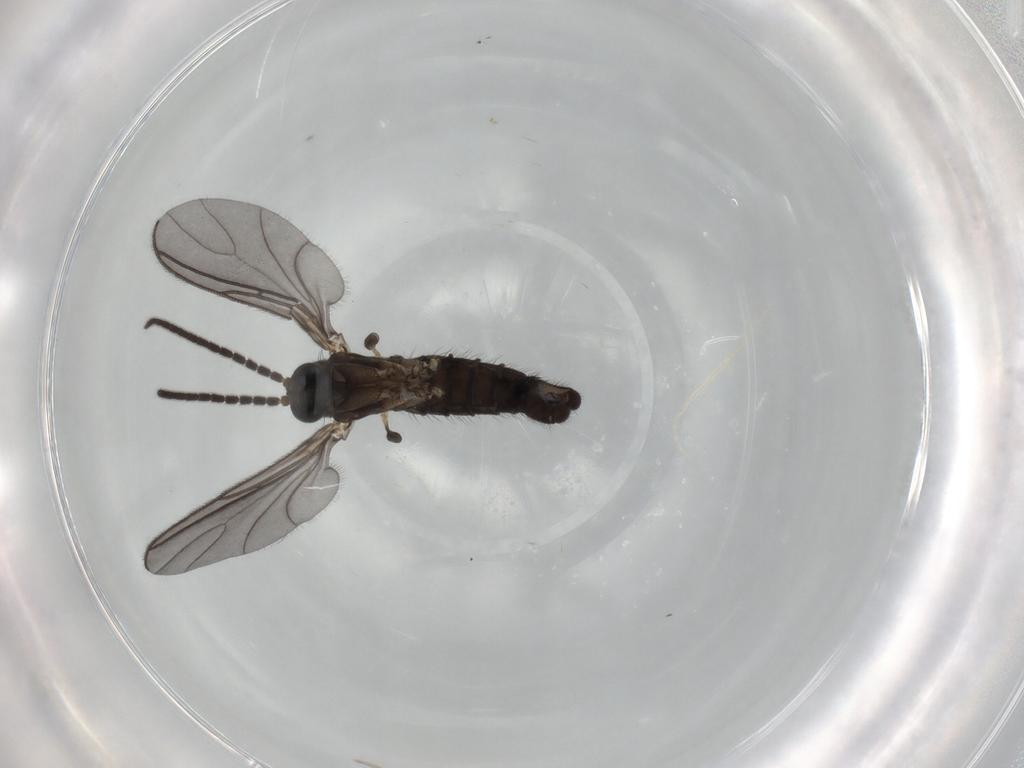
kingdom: Animalia
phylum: Arthropoda
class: Insecta
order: Diptera
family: Sciaridae
